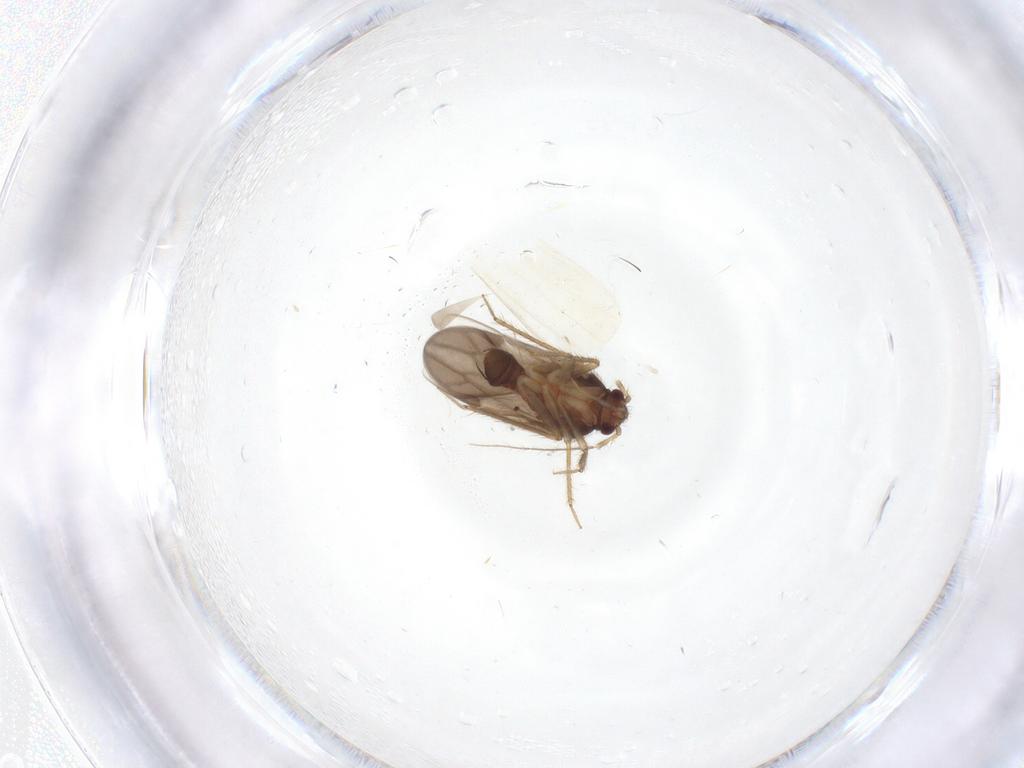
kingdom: Animalia
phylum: Arthropoda
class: Insecta
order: Hemiptera
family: Ceratocombidae
